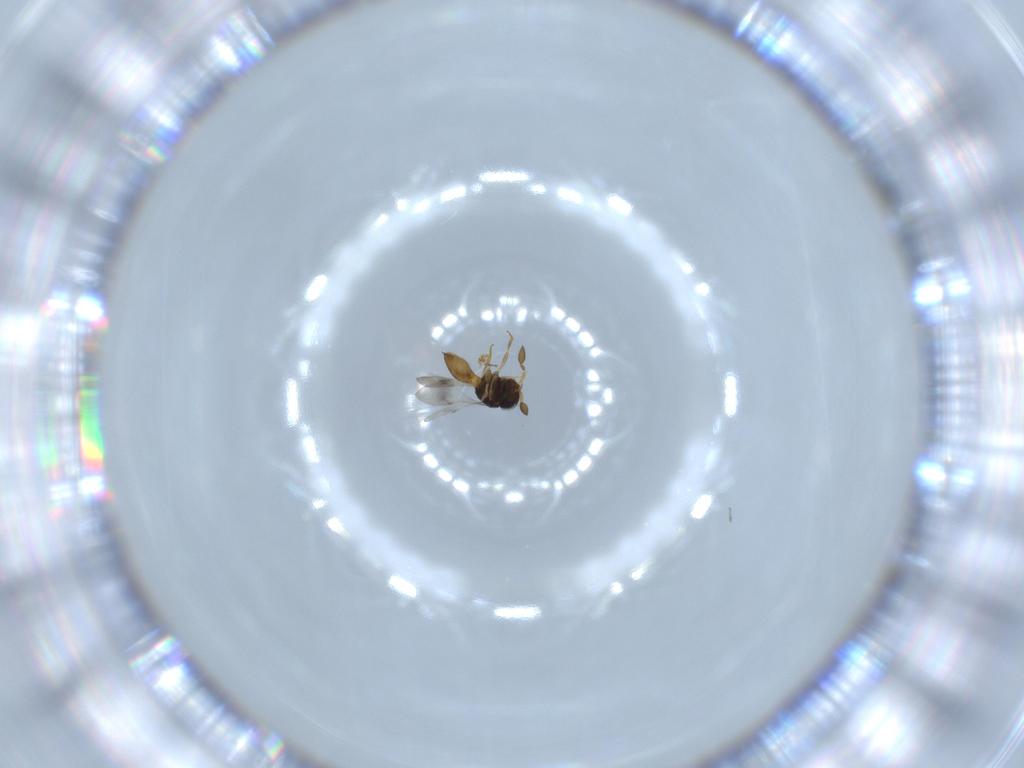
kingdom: Animalia
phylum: Arthropoda
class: Insecta
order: Hymenoptera
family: Scelionidae
